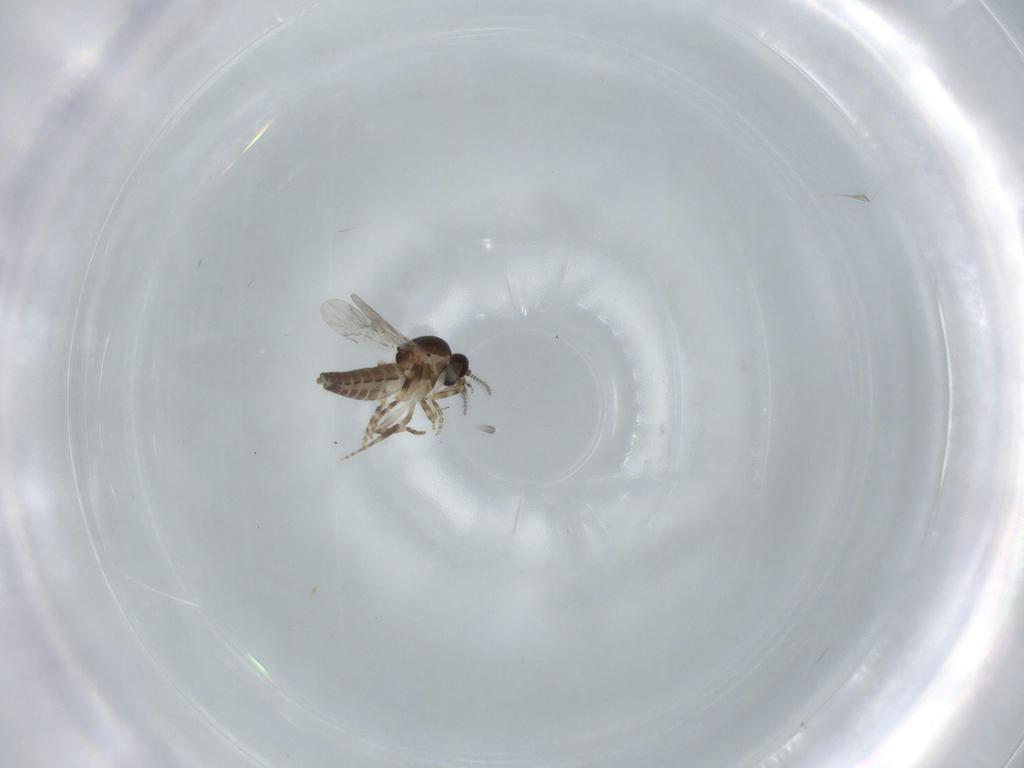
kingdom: Animalia
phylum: Arthropoda
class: Insecta
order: Diptera
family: Ceratopogonidae
